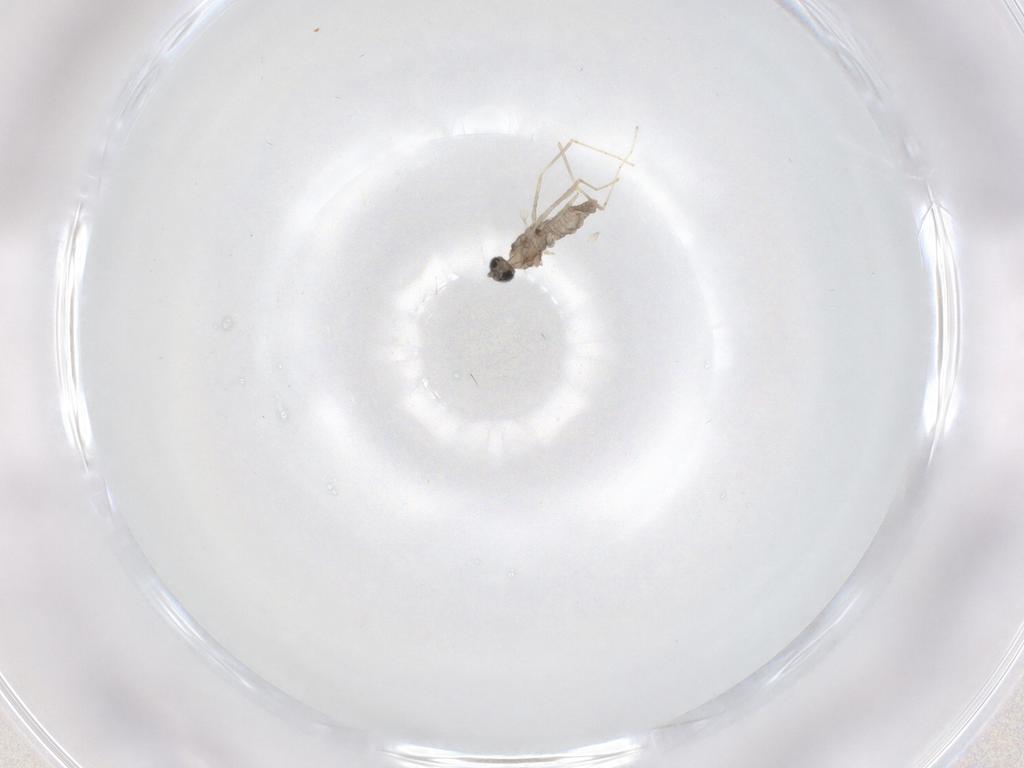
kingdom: Animalia
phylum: Arthropoda
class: Insecta
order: Diptera
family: Cecidomyiidae
